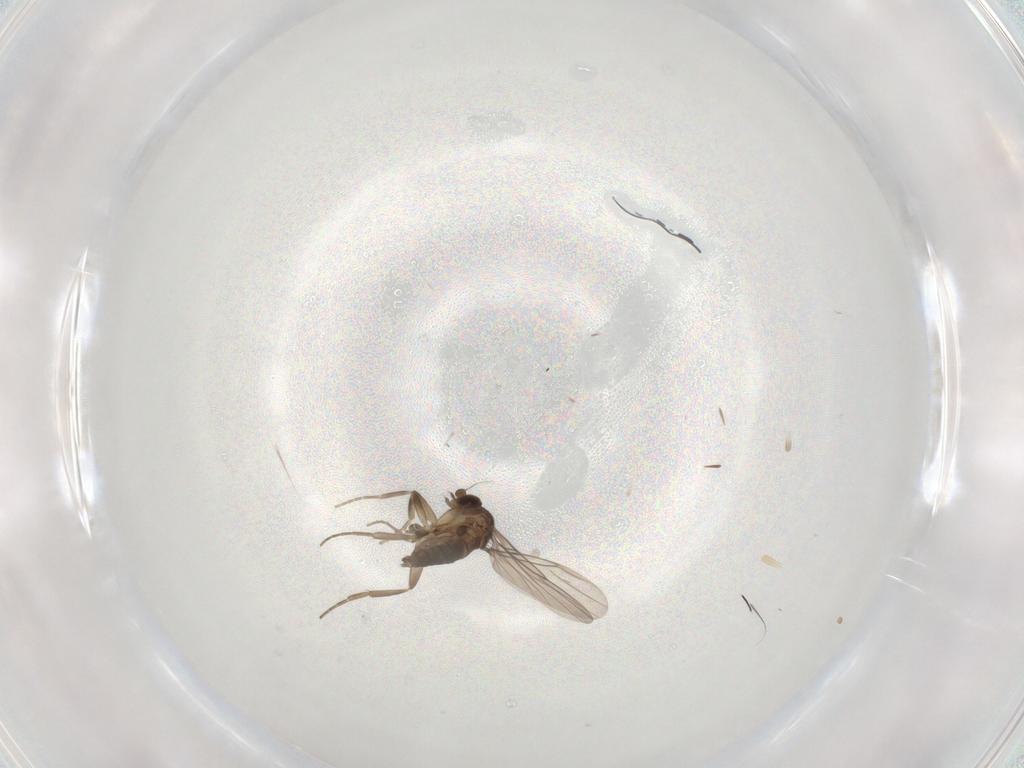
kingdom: Animalia
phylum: Arthropoda
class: Insecta
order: Diptera
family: Phoridae
